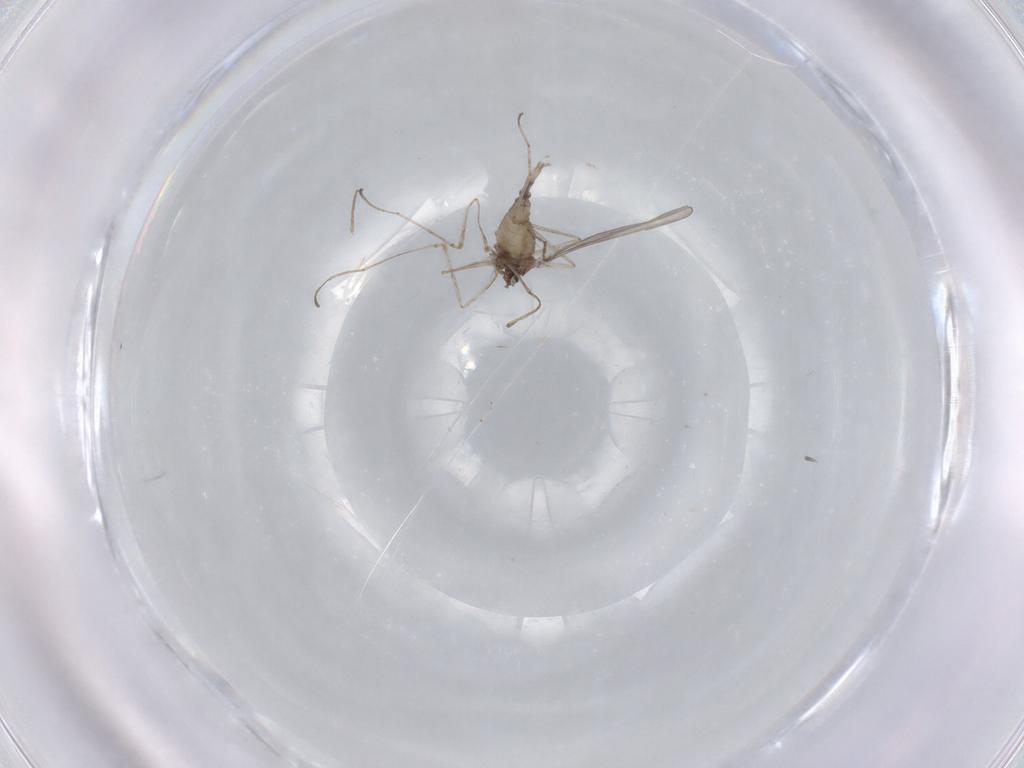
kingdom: Animalia
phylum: Arthropoda
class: Insecta
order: Diptera
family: Cecidomyiidae
